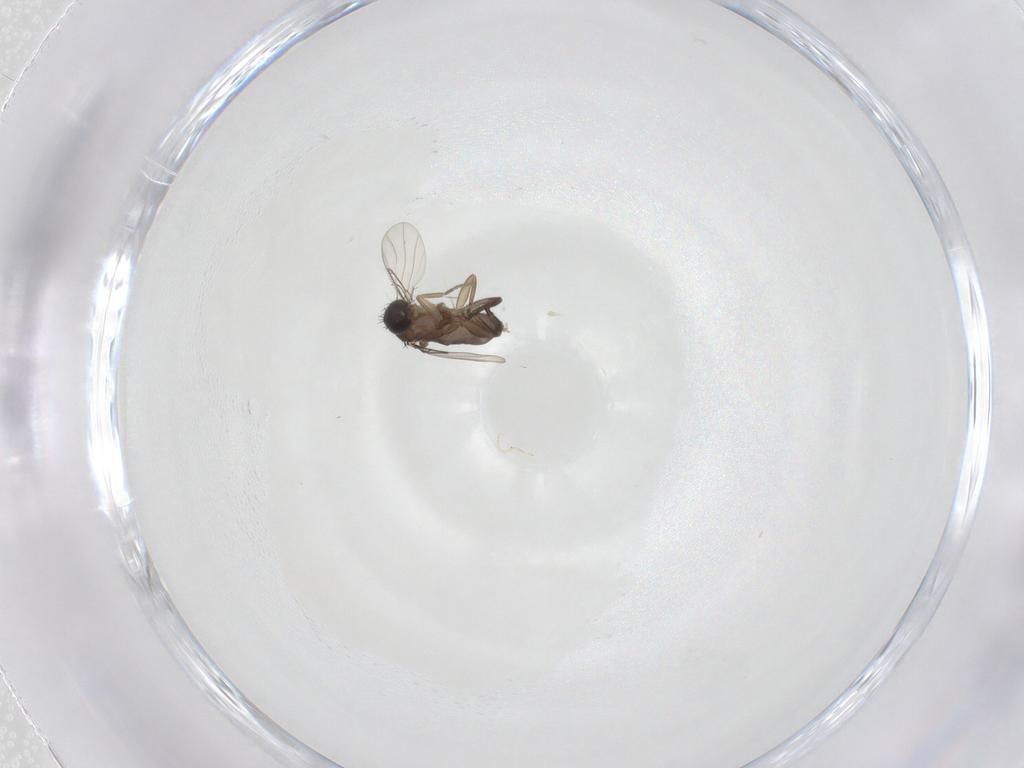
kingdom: Animalia
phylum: Arthropoda
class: Insecta
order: Diptera
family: Phoridae
